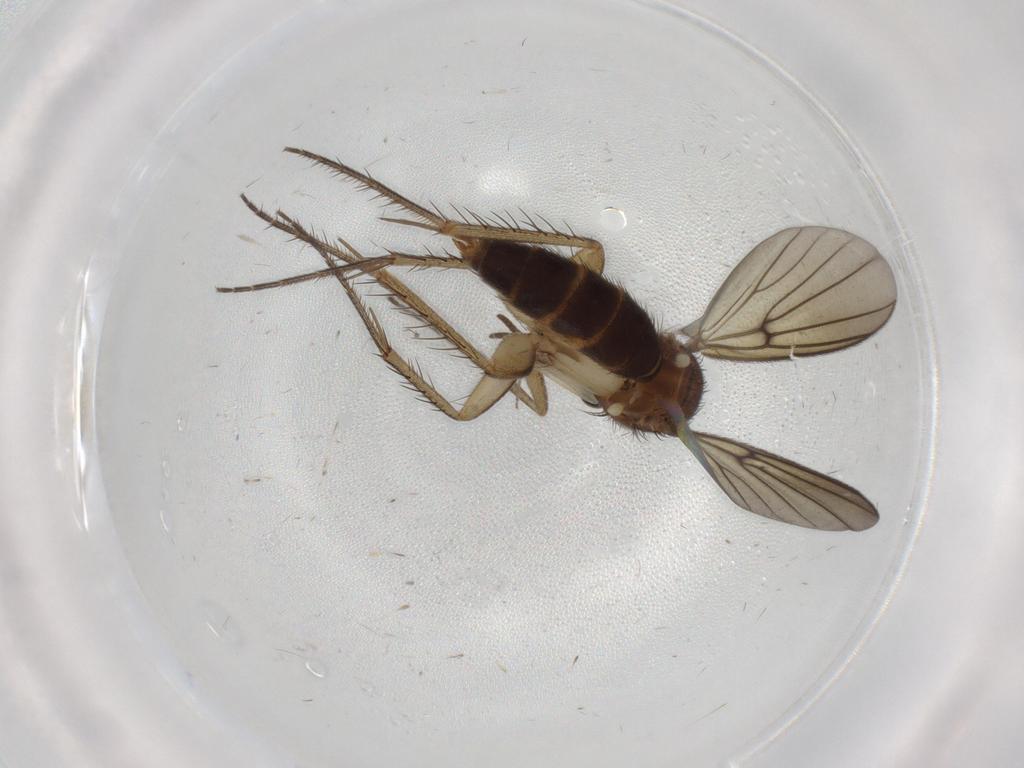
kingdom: Animalia
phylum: Arthropoda
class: Insecta
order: Diptera
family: Mycetophilidae
